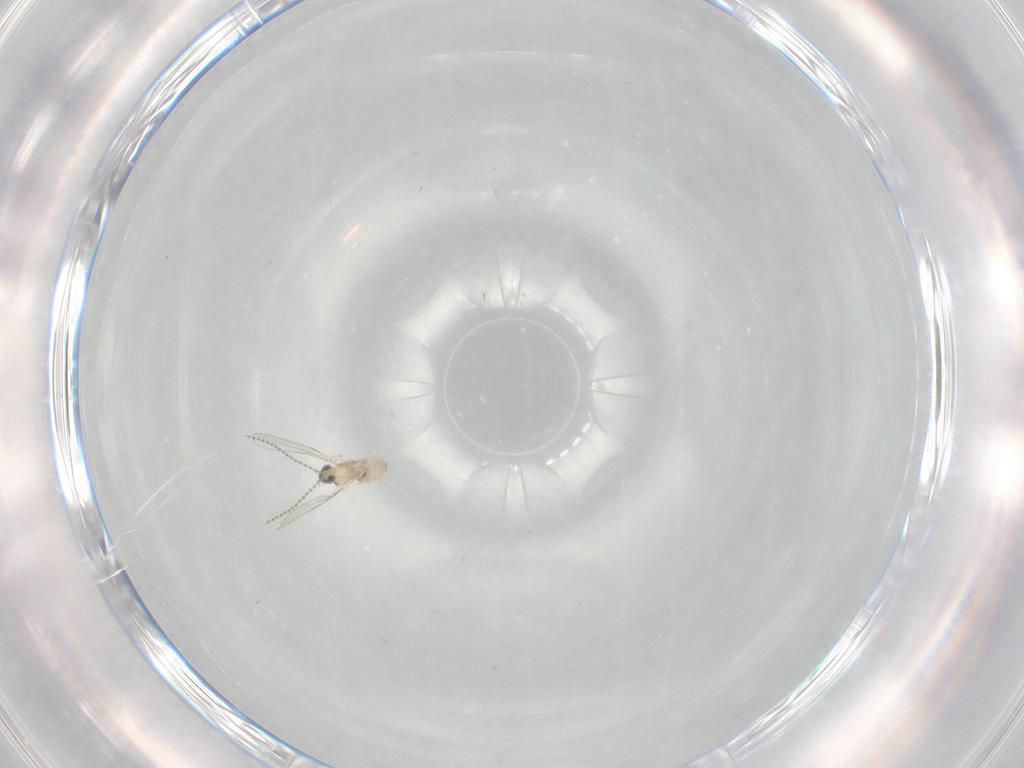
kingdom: Animalia
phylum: Arthropoda
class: Insecta
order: Diptera
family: Cecidomyiidae
